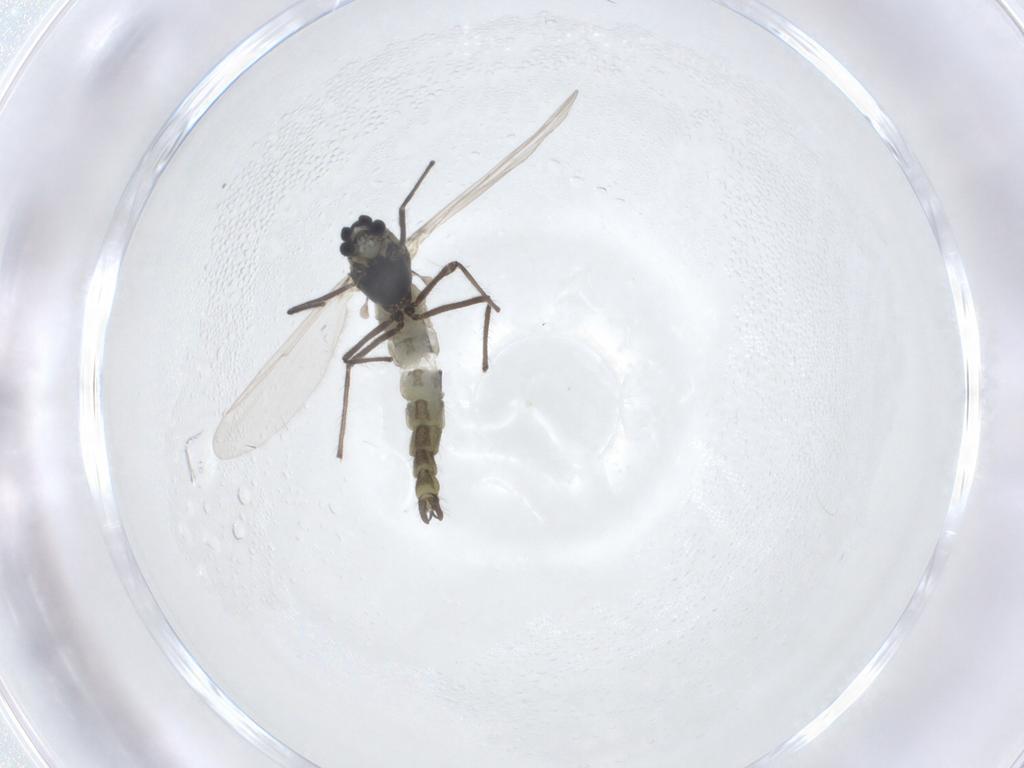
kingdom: Animalia
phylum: Arthropoda
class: Insecta
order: Diptera
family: Chironomidae
